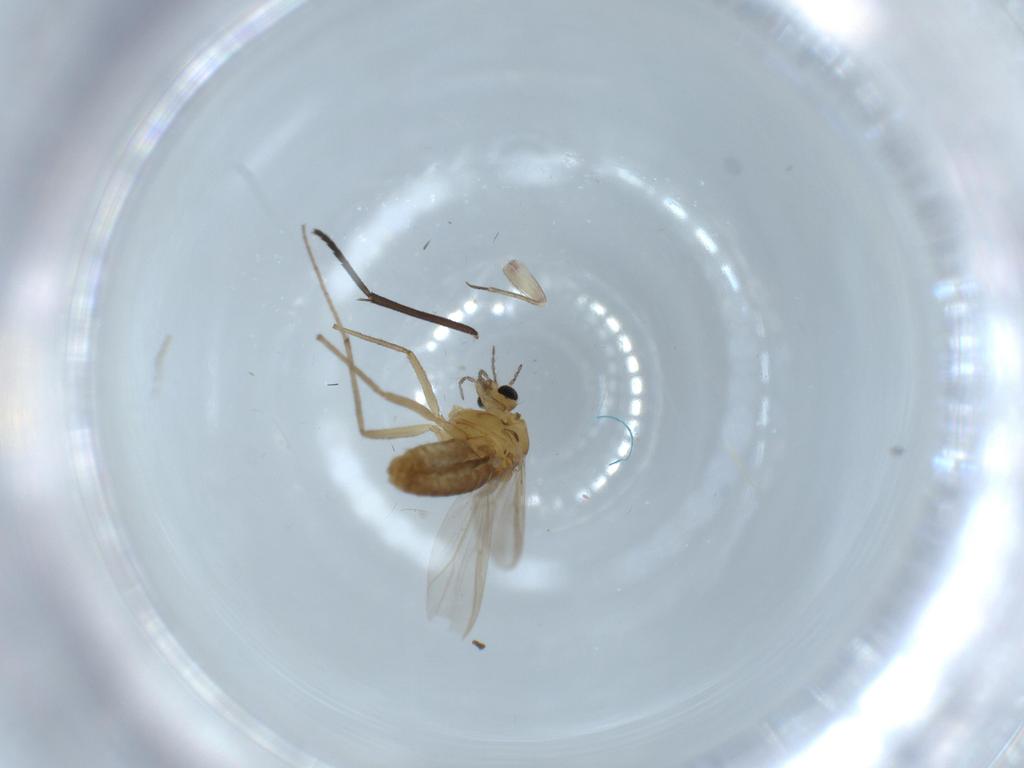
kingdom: Animalia
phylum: Arthropoda
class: Insecta
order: Diptera
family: Chironomidae
